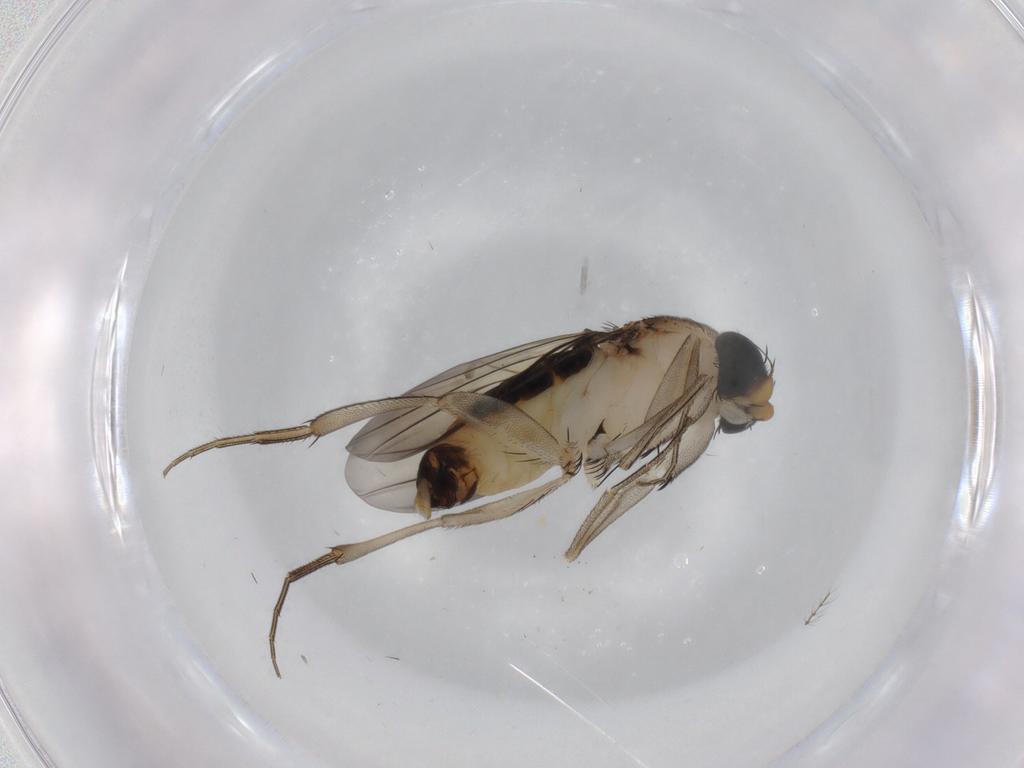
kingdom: Animalia
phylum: Arthropoda
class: Insecta
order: Diptera
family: Phoridae
